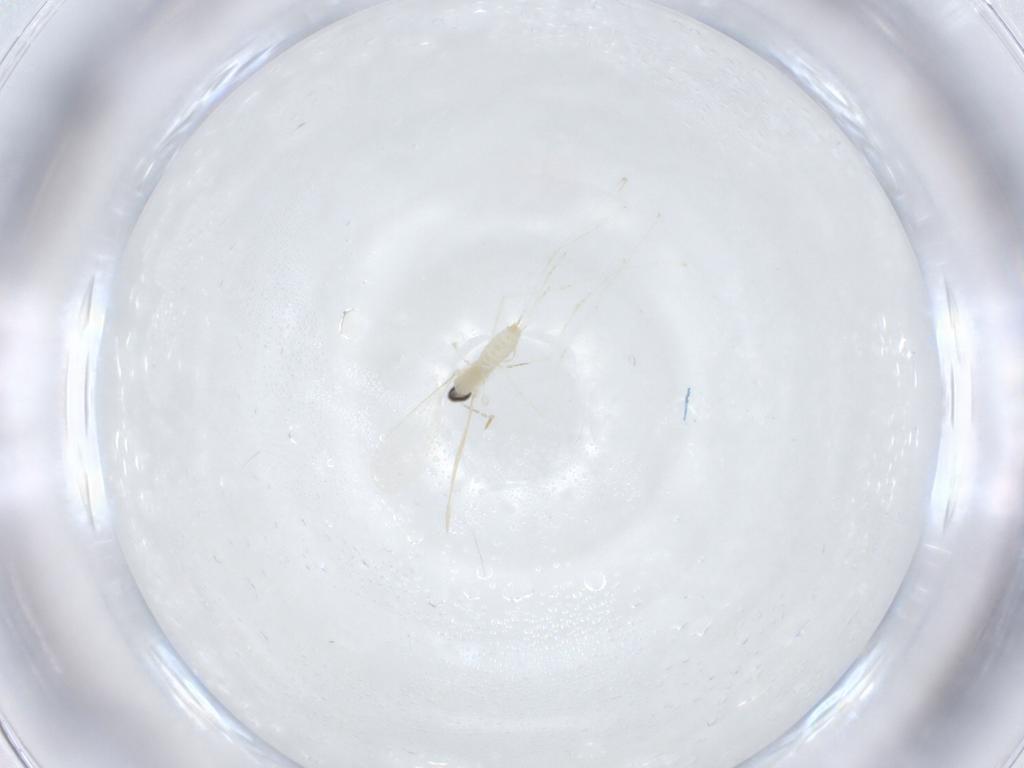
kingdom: Animalia
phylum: Arthropoda
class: Insecta
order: Diptera
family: Cecidomyiidae
